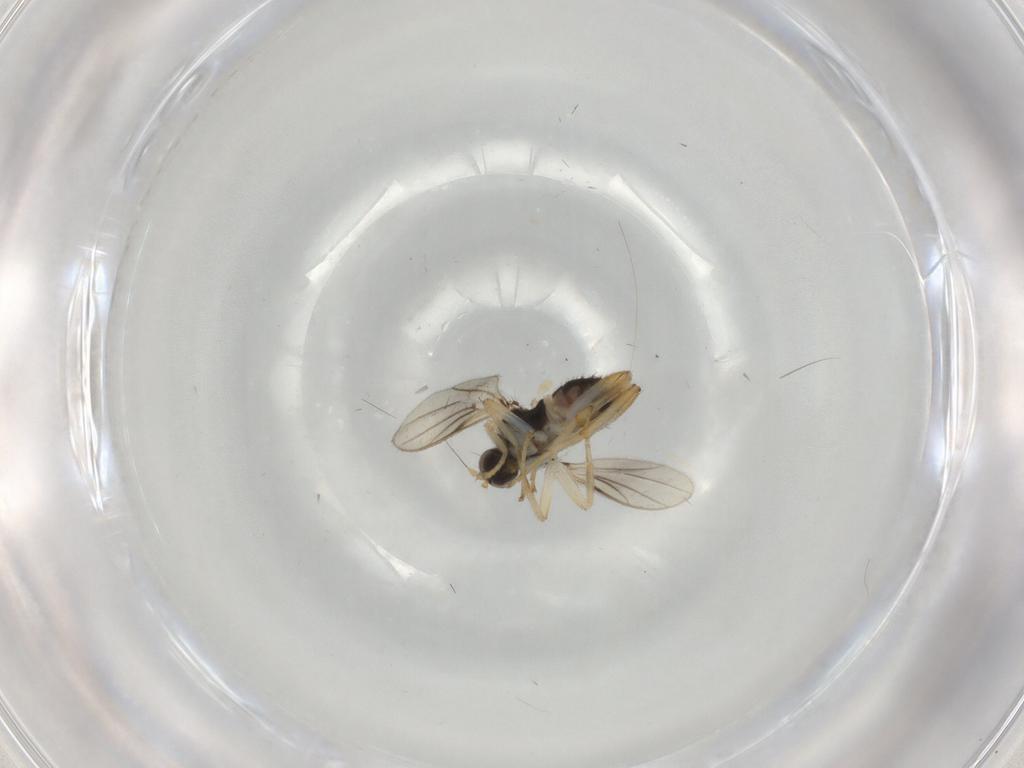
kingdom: Animalia
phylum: Arthropoda
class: Insecta
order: Diptera
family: Hybotidae
